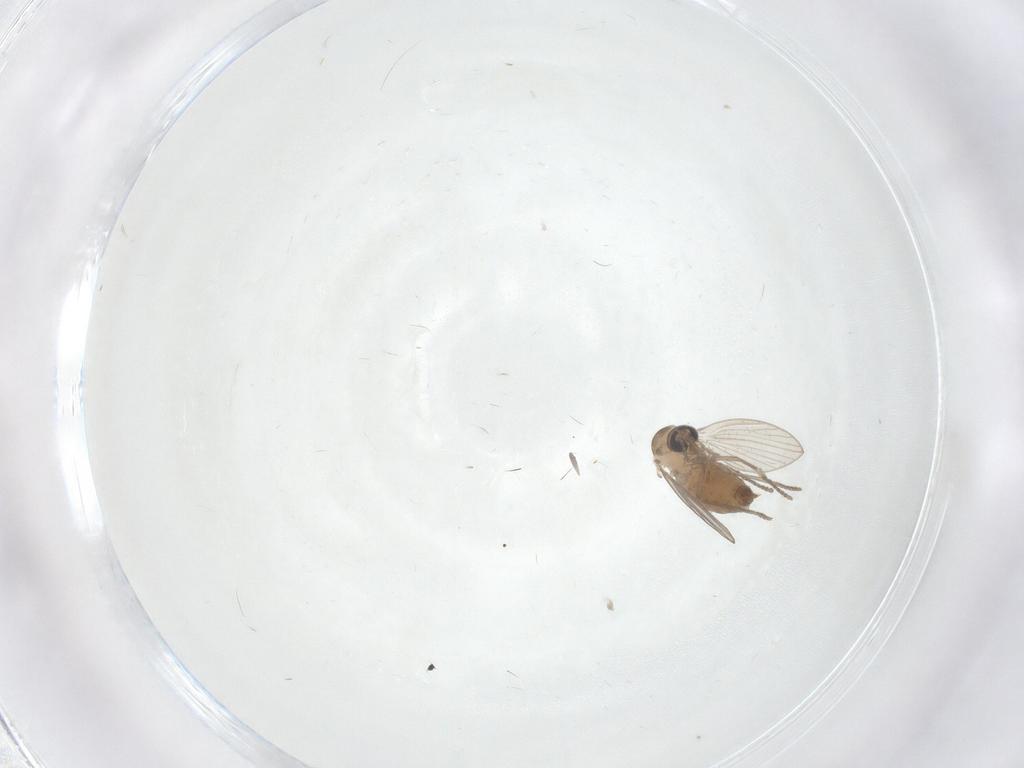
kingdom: Animalia
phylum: Arthropoda
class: Insecta
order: Diptera
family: Psychodidae
